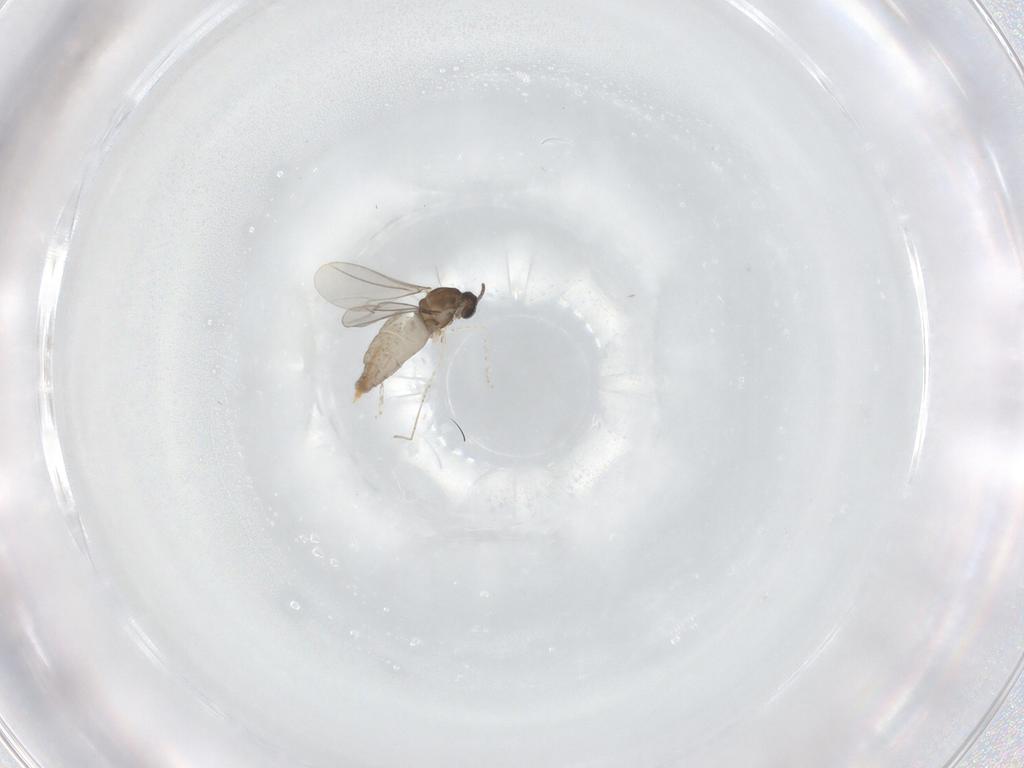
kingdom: Animalia
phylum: Arthropoda
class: Insecta
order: Diptera
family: Cecidomyiidae
